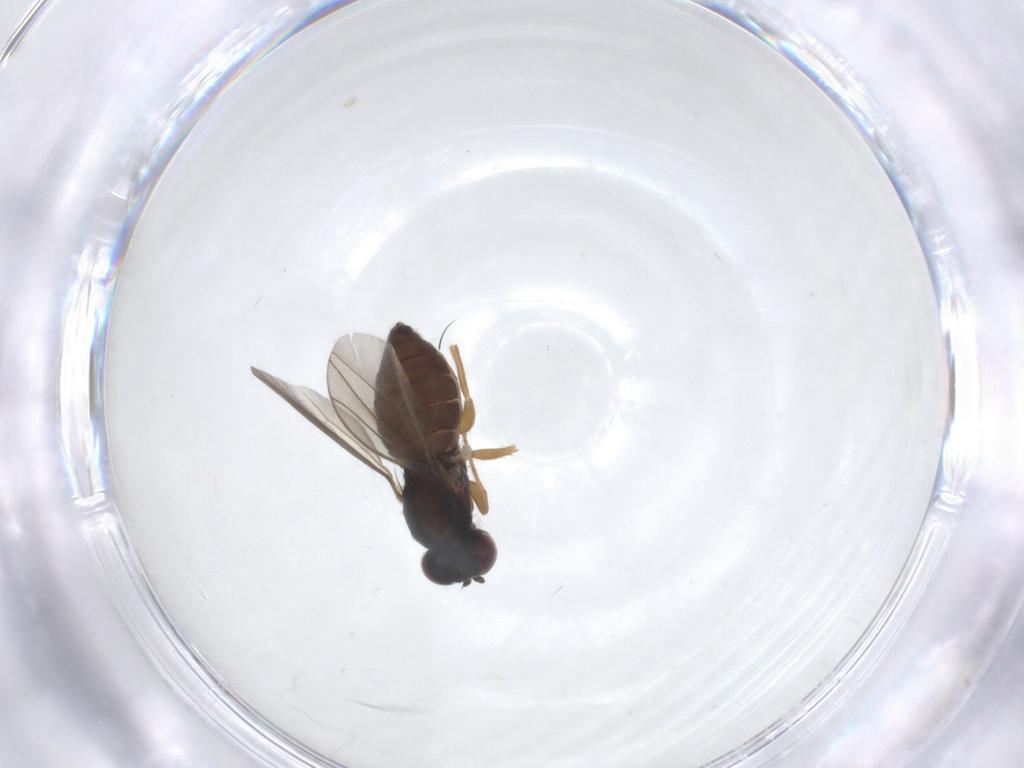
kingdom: Animalia
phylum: Arthropoda
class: Insecta
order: Diptera
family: Dolichopodidae
